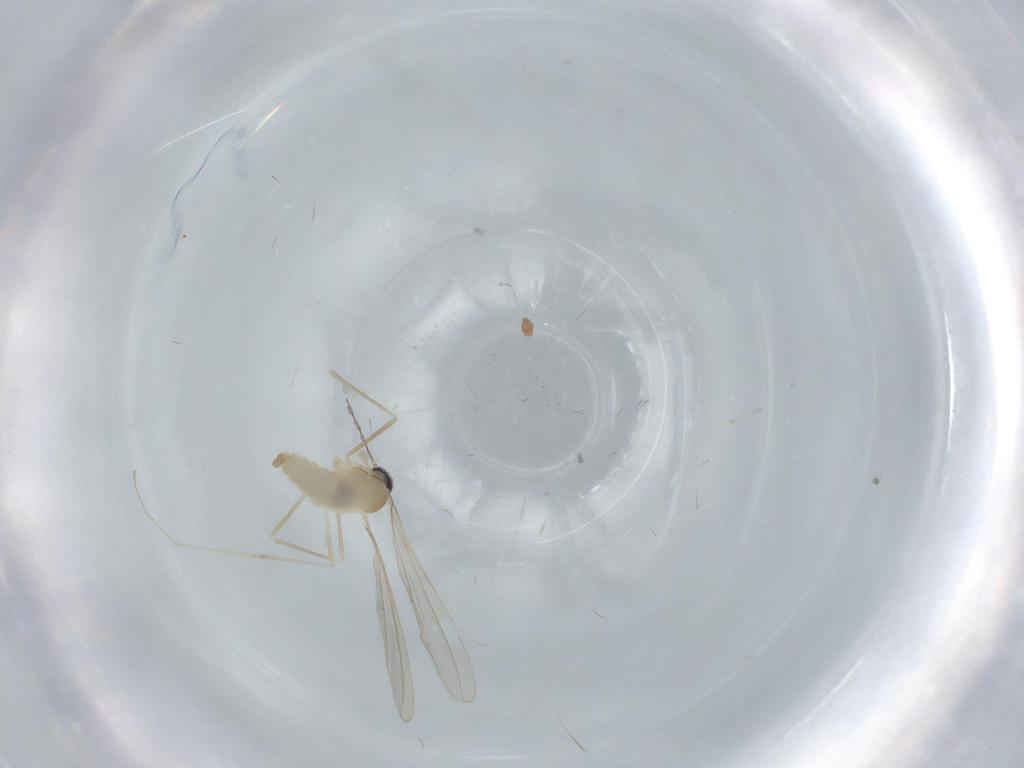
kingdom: Animalia
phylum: Arthropoda
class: Insecta
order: Diptera
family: Cecidomyiidae
